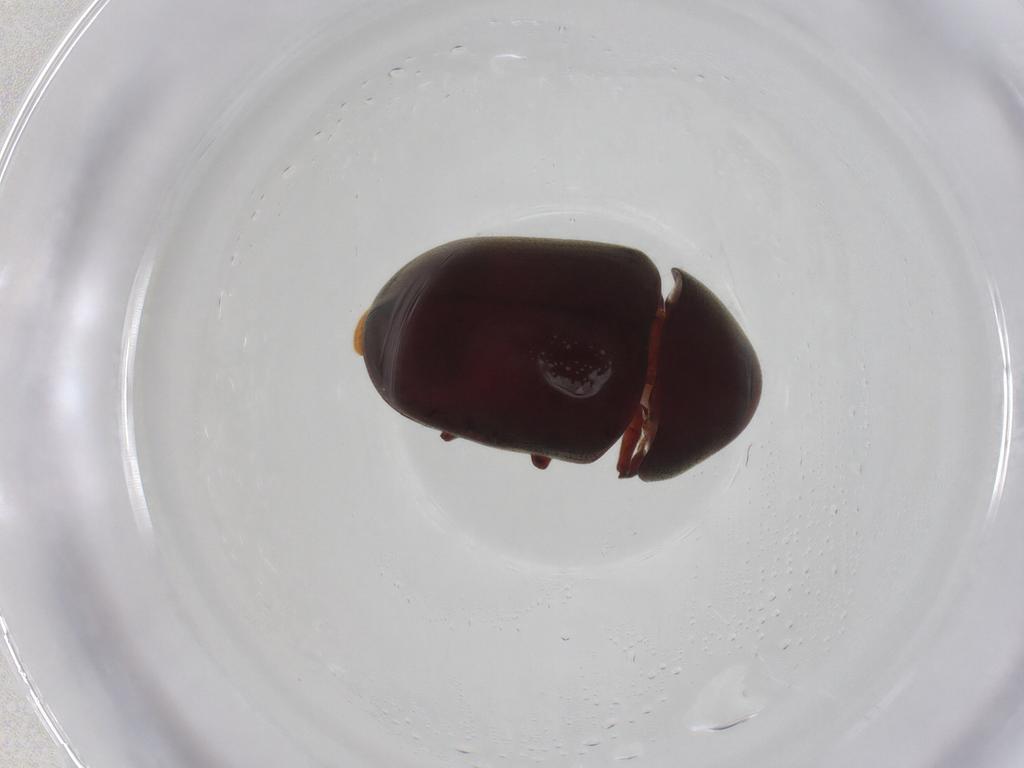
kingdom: Animalia
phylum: Arthropoda
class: Insecta
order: Coleoptera
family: Ptinidae
